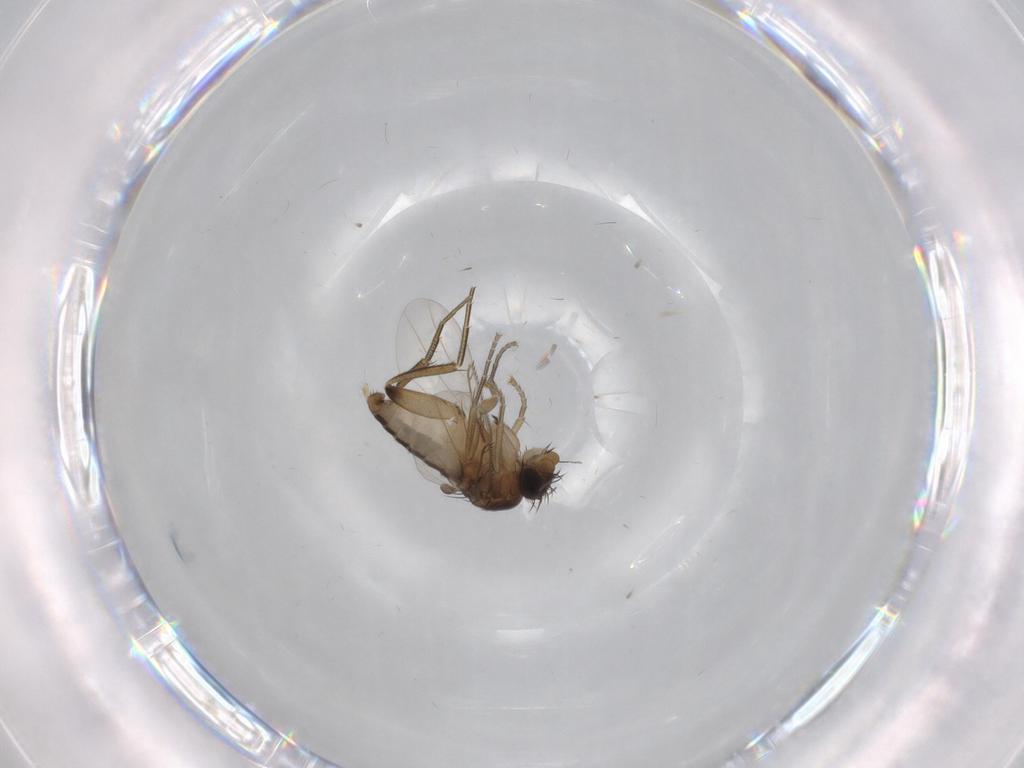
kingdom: Animalia
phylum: Arthropoda
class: Insecta
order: Diptera
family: Phoridae
